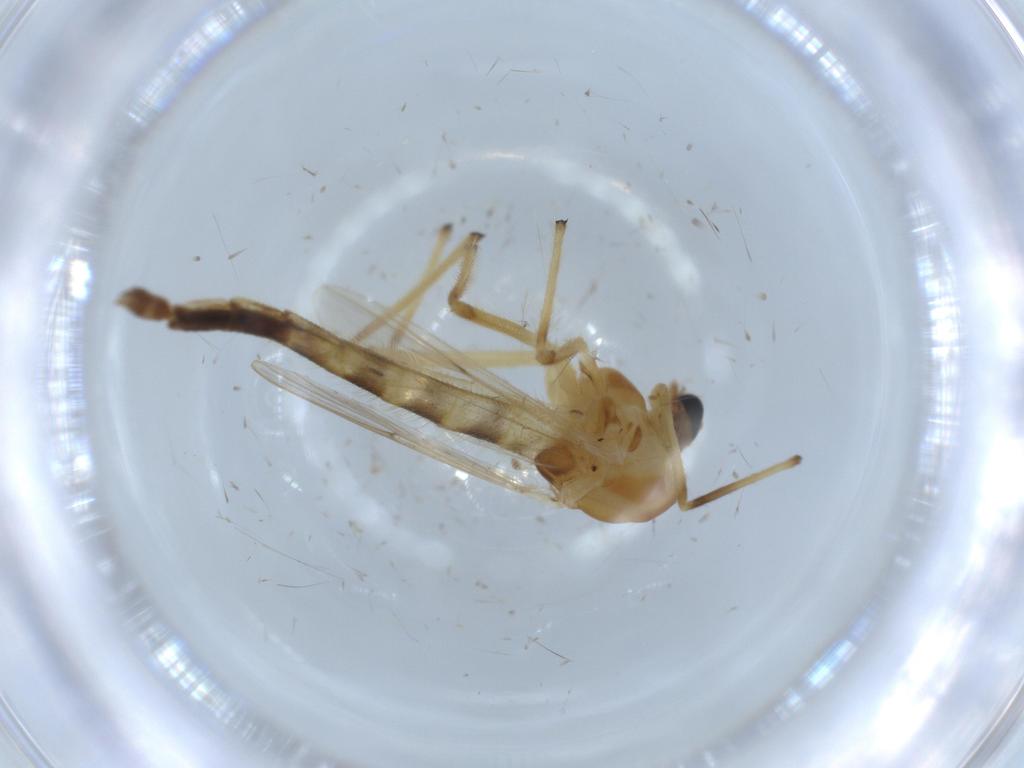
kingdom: Animalia
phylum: Arthropoda
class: Insecta
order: Diptera
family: Chironomidae
